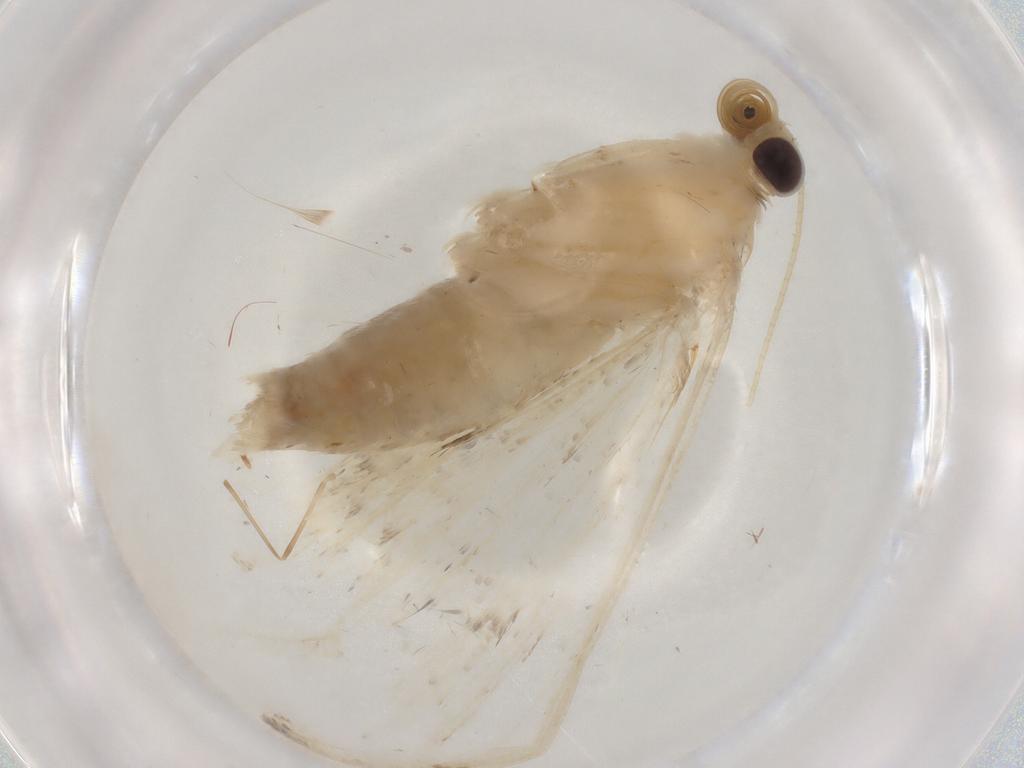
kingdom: Animalia
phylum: Arthropoda
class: Insecta
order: Lepidoptera
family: Crambidae
